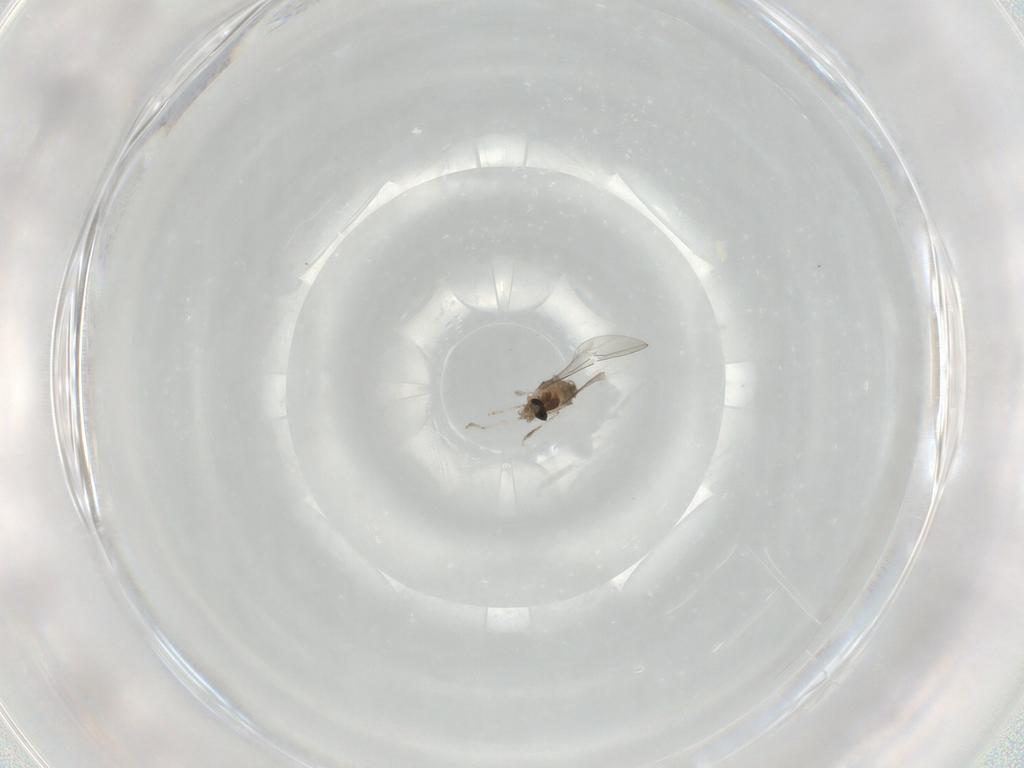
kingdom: Animalia
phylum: Arthropoda
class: Insecta
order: Diptera
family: Cecidomyiidae
